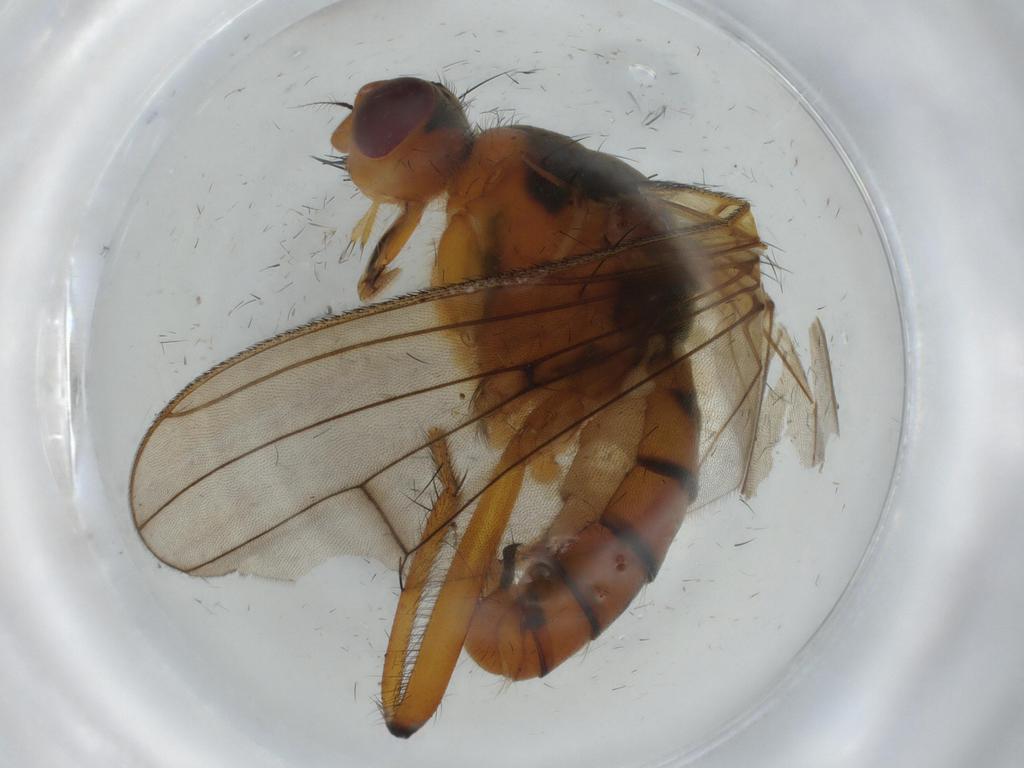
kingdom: Animalia
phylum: Arthropoda
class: Insecta
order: Diptera
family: Scathophagidae
